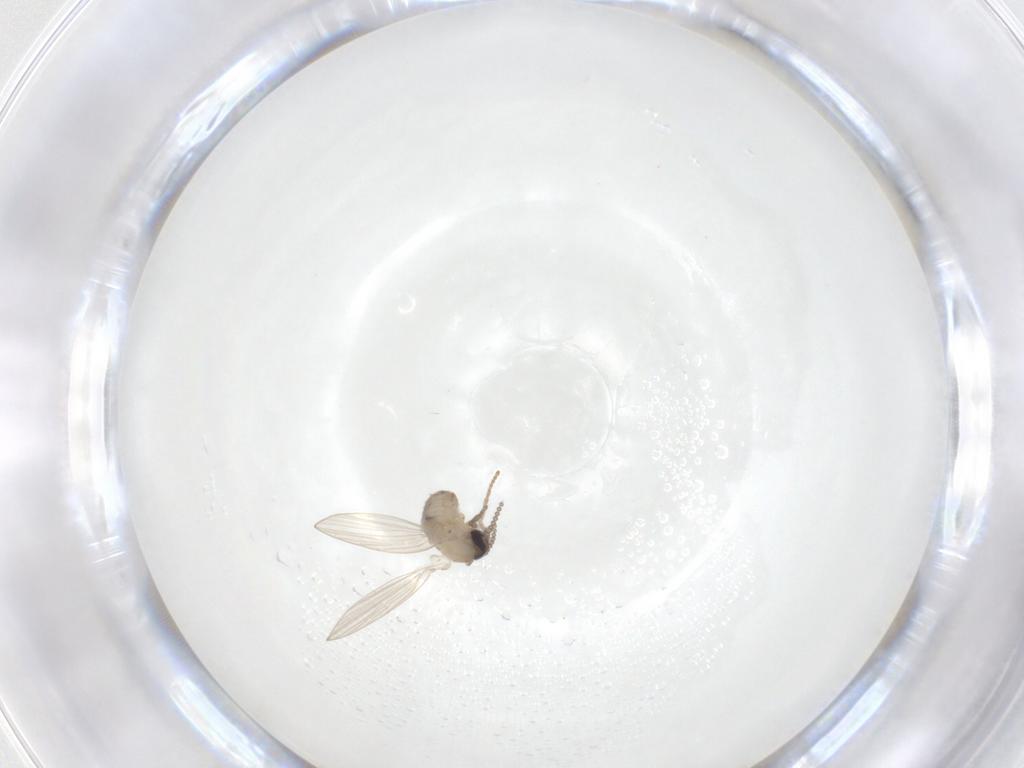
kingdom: Animalia
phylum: Arthropoda
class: Insecta
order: Diptera
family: Psychodidae
